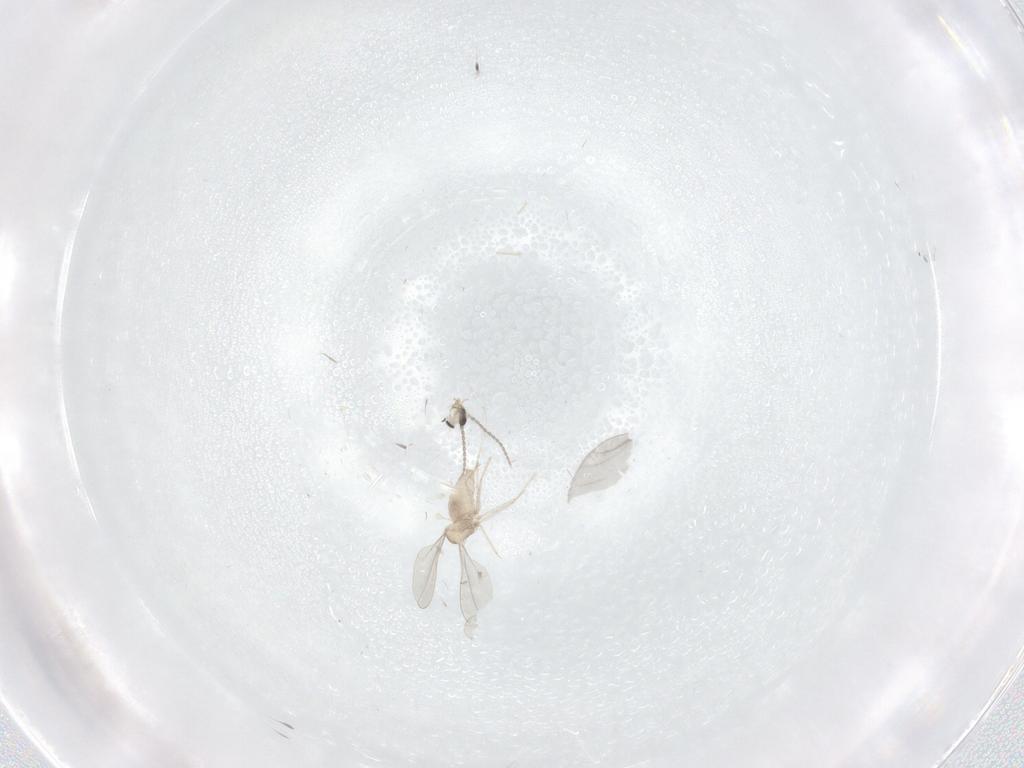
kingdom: Animalia
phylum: Arthropoda
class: Insecta
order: Diptera
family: Cecidomyiidae
